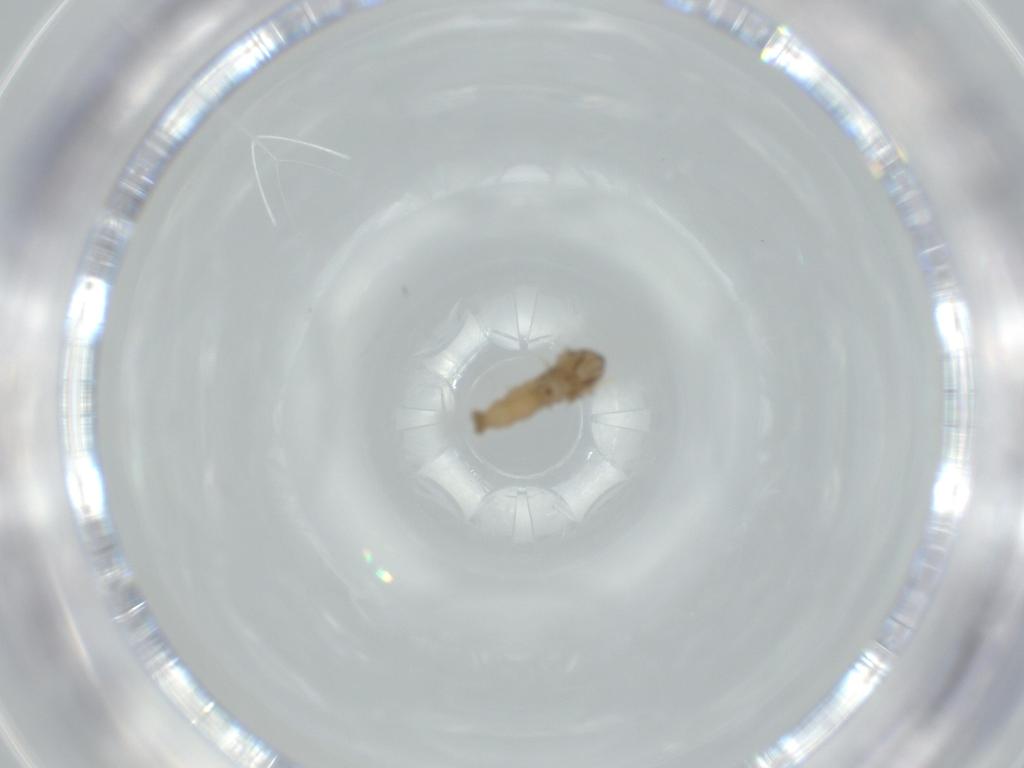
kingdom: Animalia
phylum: Arthropoda
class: Insecta
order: Diptera
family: Cecidomyiidae
